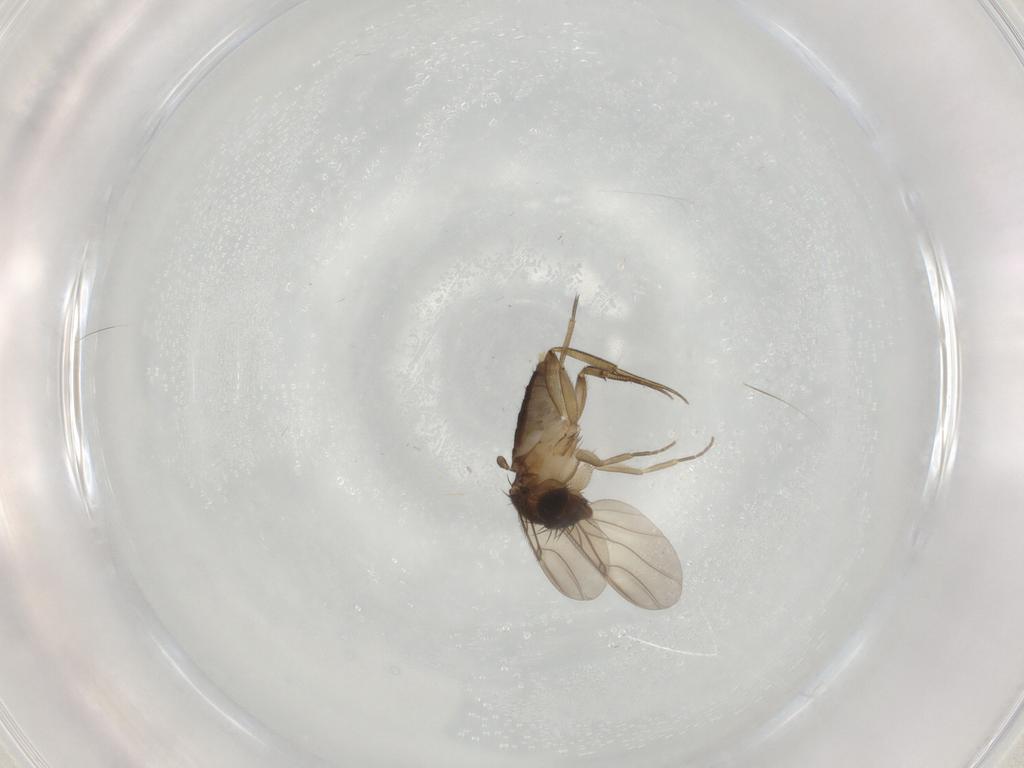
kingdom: Animalia
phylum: Arthropoda
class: Insecta
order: Diptera
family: Phoridae
